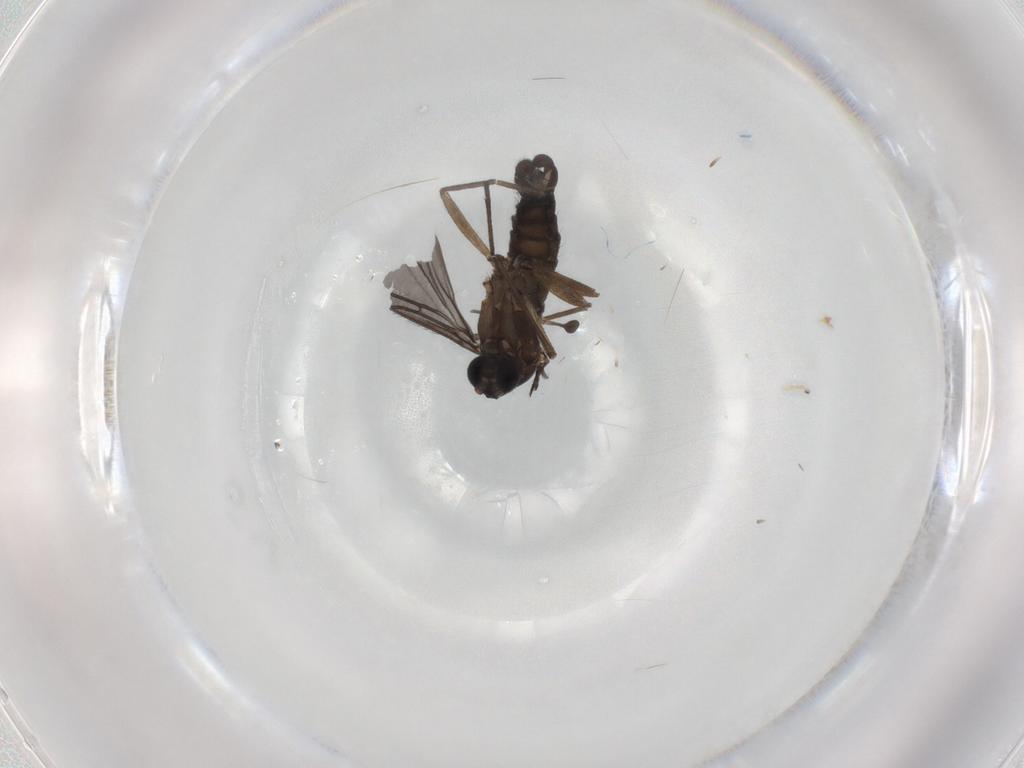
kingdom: Animalia
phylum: Arthropoda
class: Insecta
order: Diptera
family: Sciaridae
